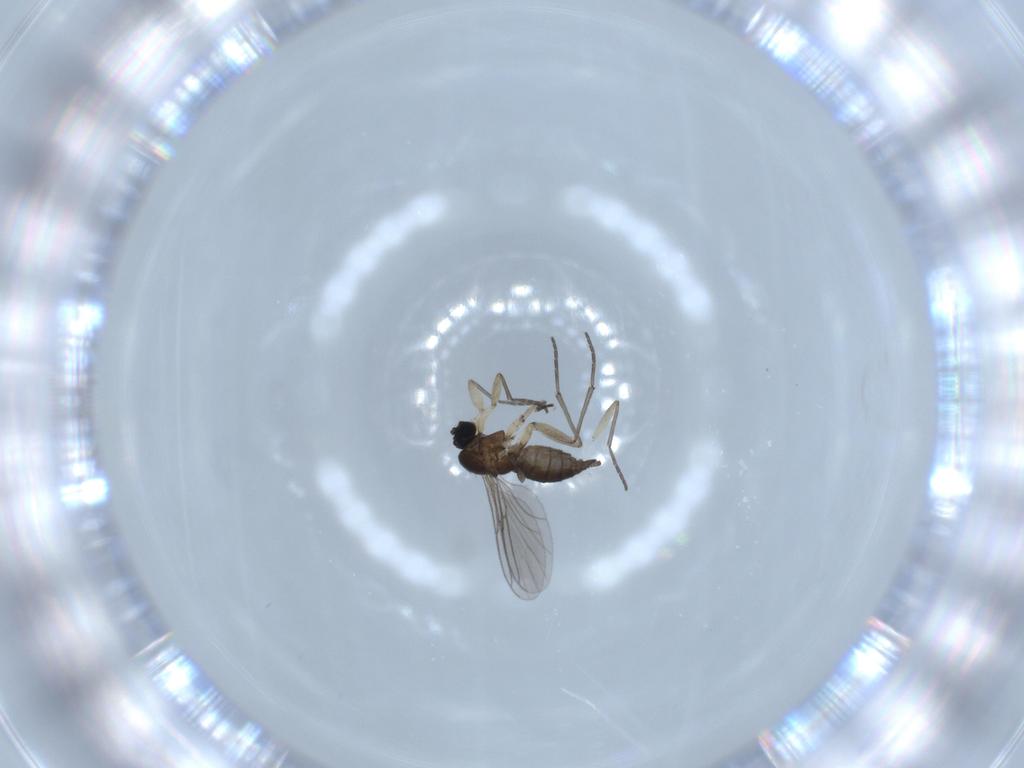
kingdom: Animalia
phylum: Arthropoda
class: Insecta
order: Diptera
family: Sciaridae
